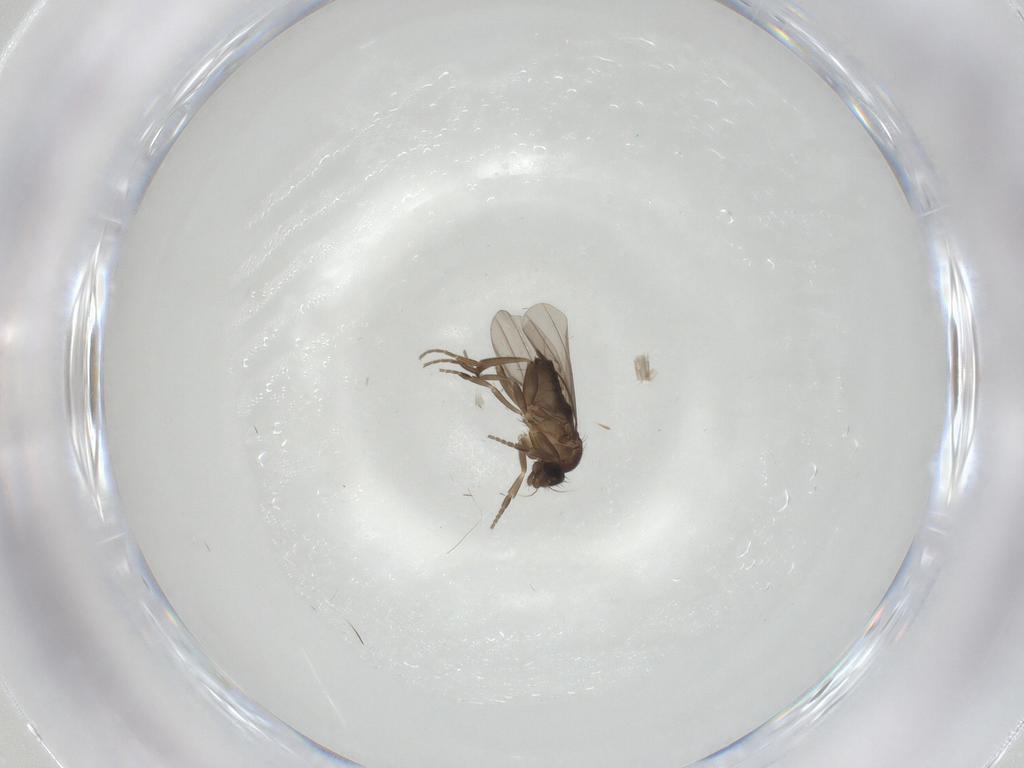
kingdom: Animalia
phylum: Arthropoda
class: Insecta
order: Diptera
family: Phoridae
